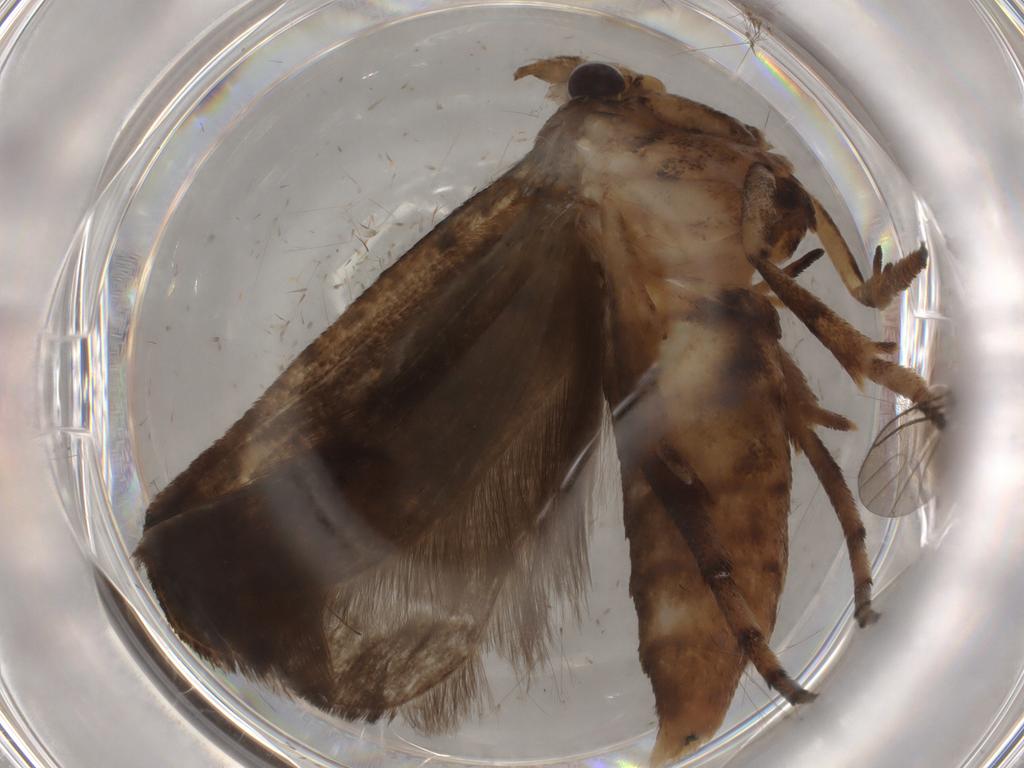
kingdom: Animalia
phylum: Arthropoda
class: Insecta
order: Lepidoptera
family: Yponomeutidae
